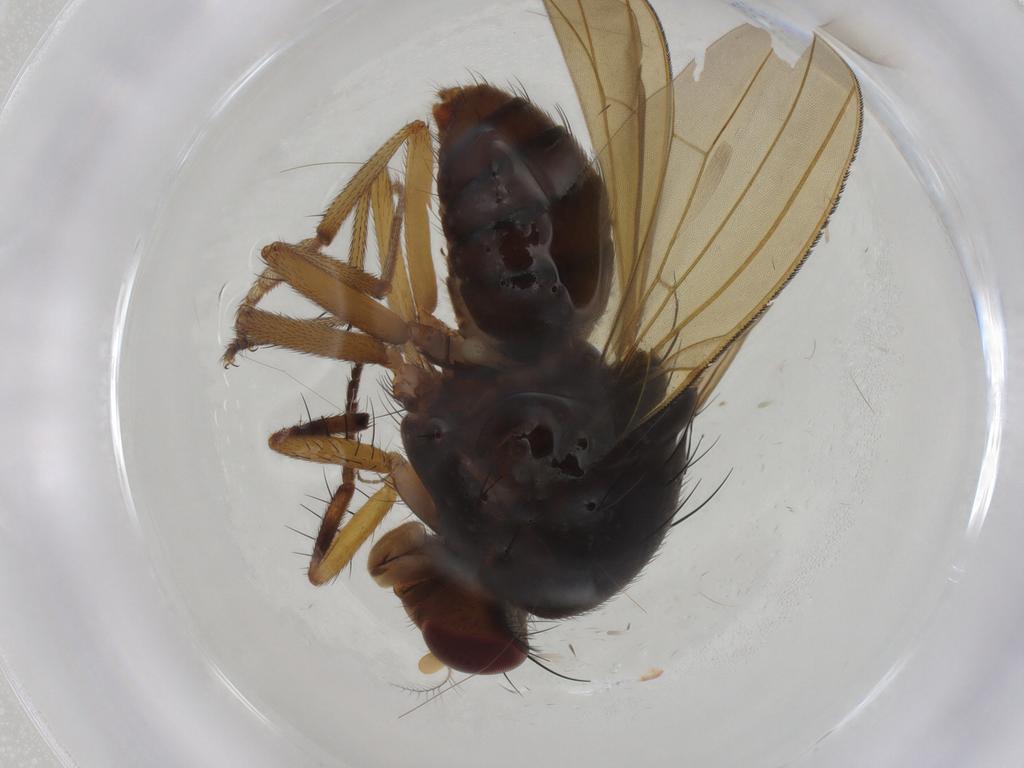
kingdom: Animalia
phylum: Arthropoda
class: Insecta
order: Diptera
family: Cecidomyiidae
